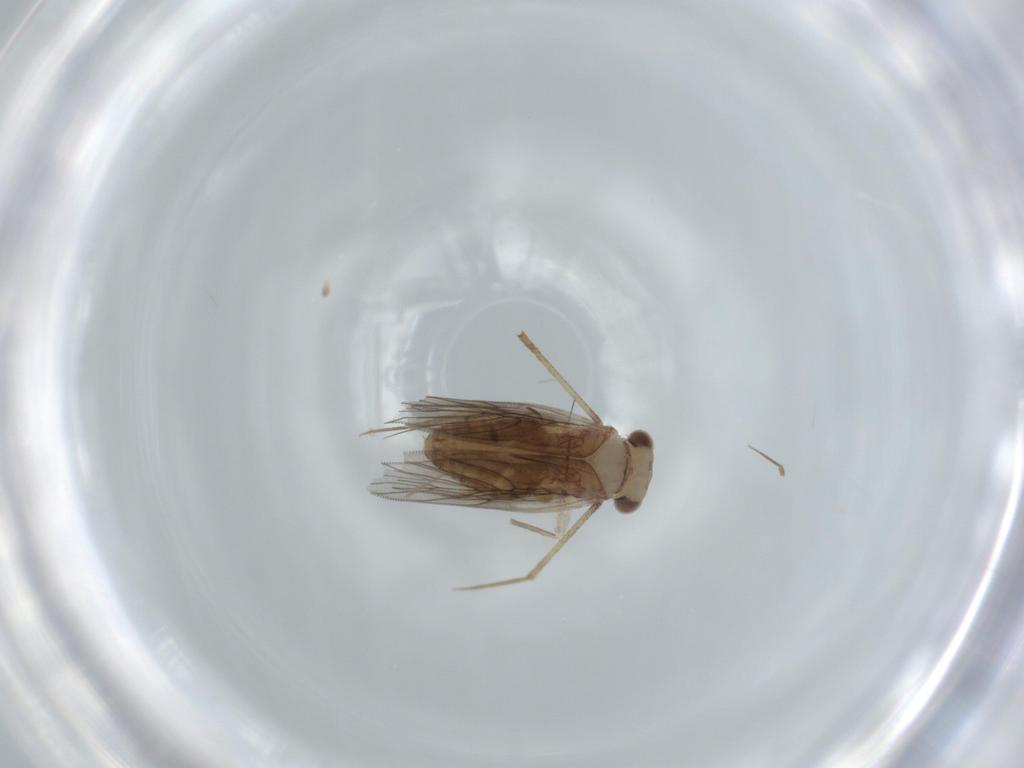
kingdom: Animalia
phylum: Arthropoda
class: Insecta
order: Psocodea
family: Lepidopsocidae
